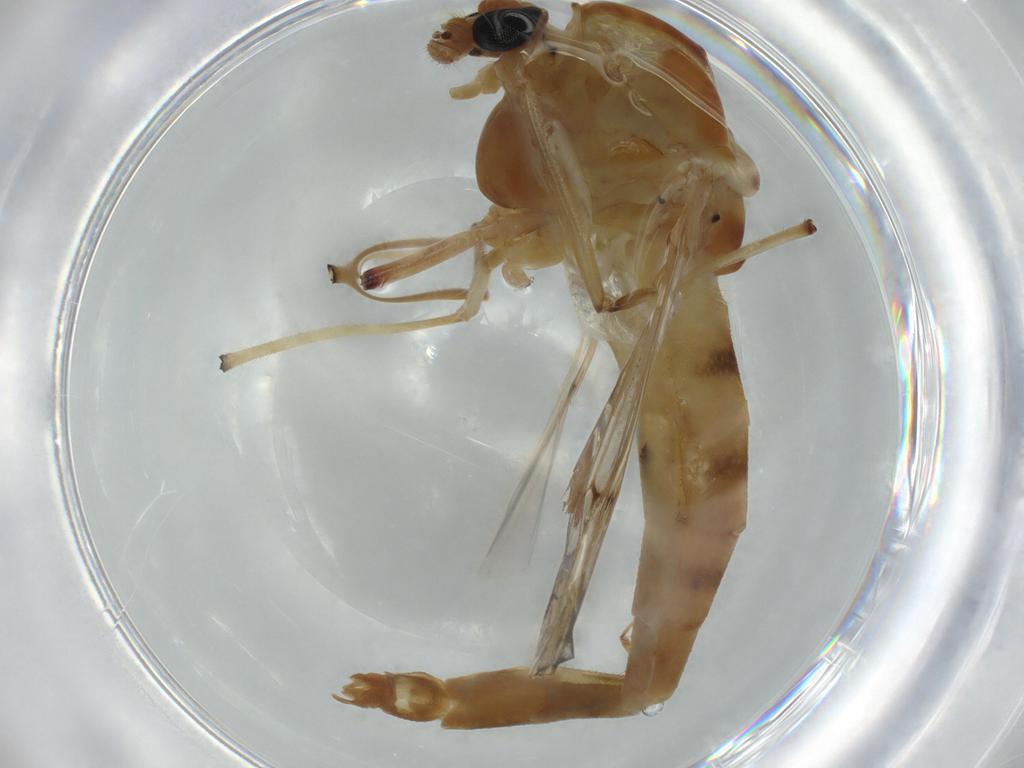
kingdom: Animalia
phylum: Arthropoda
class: Insecta
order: Diptera
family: Chironomidae
